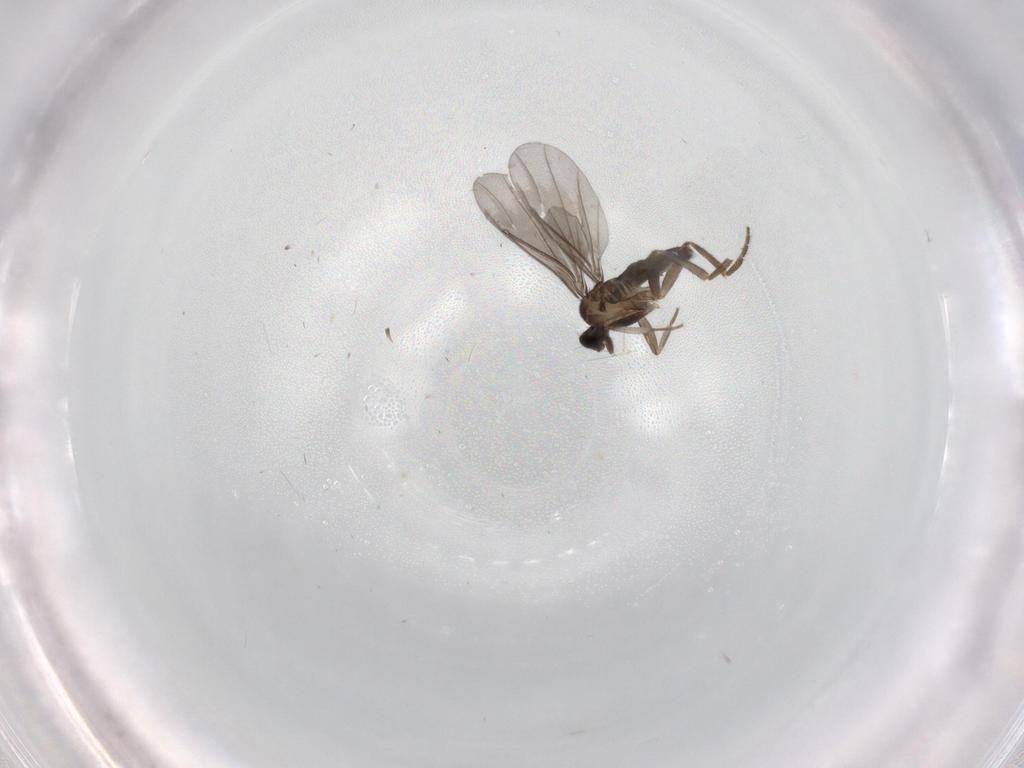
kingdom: Animalia
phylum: Arthropoda
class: Insecta
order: Diptera
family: Phoridae
